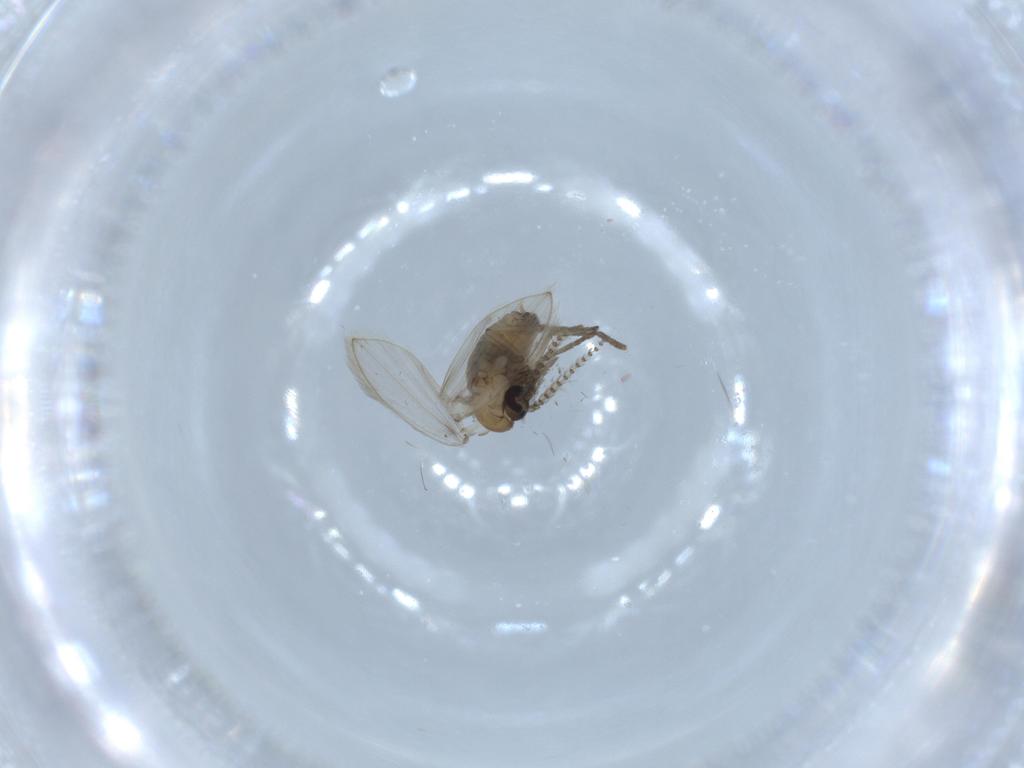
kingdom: Animalia
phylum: Arthropoda
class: Insecta
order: Diptera
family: Psychodidae
